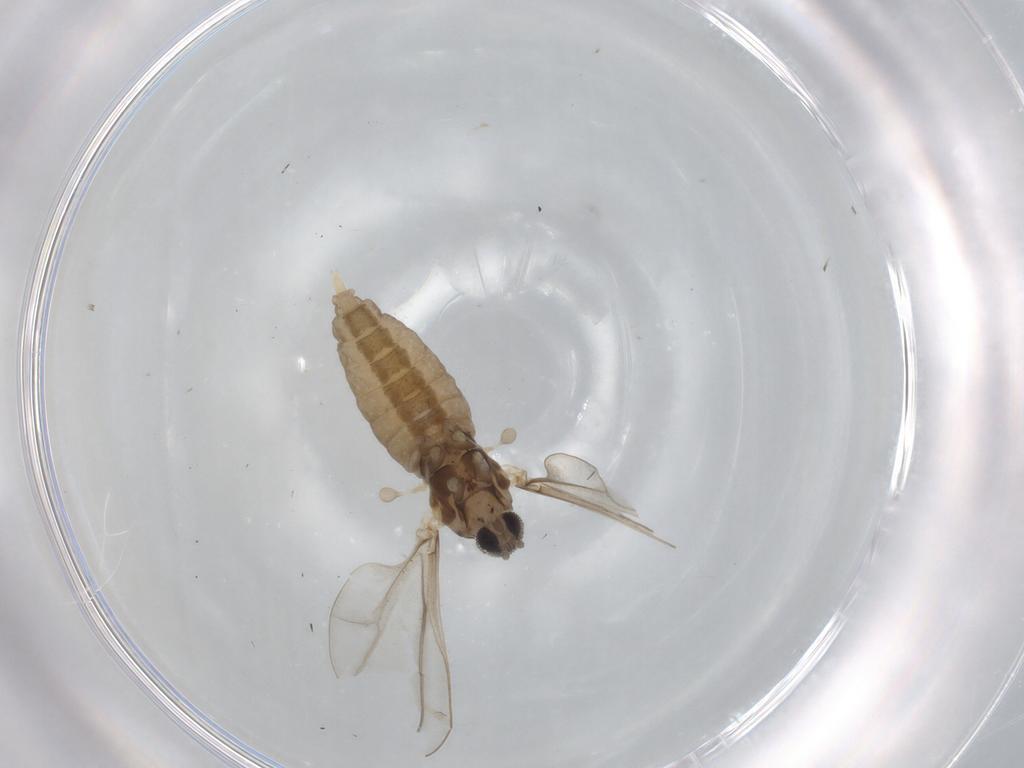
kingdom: Animalia
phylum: Arthropoda
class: Insecta
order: Diptera
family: Cecidomyiidae
